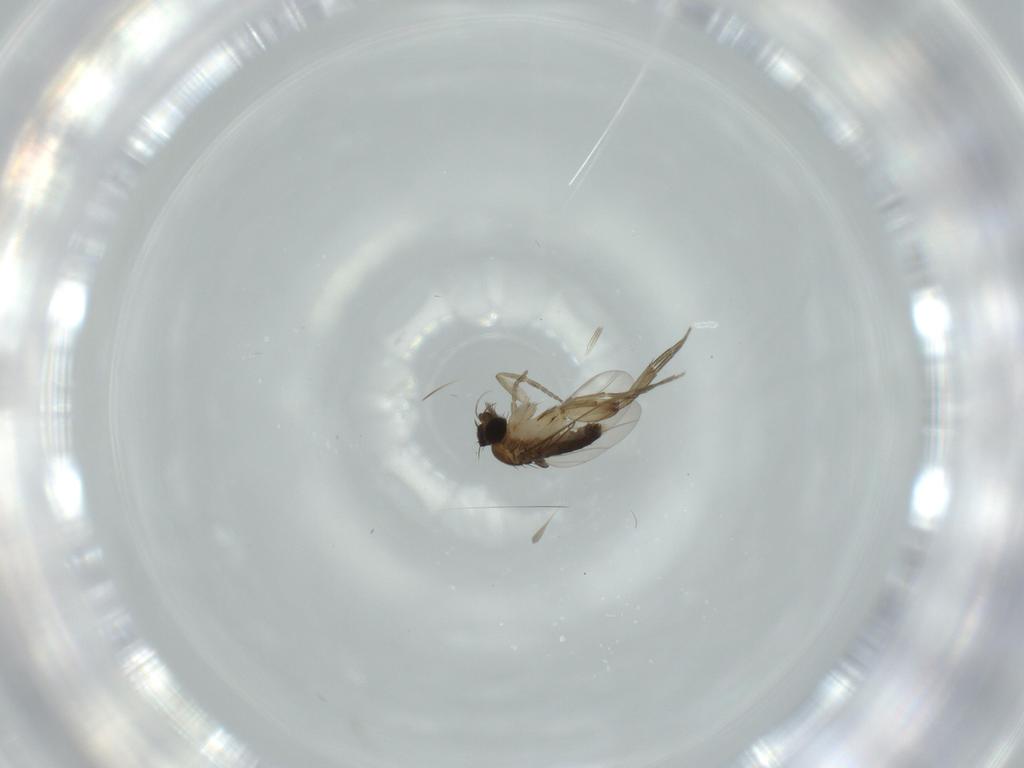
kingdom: Animalia
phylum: Arthropoda
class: Insecta
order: Diptera
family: Phoridae
